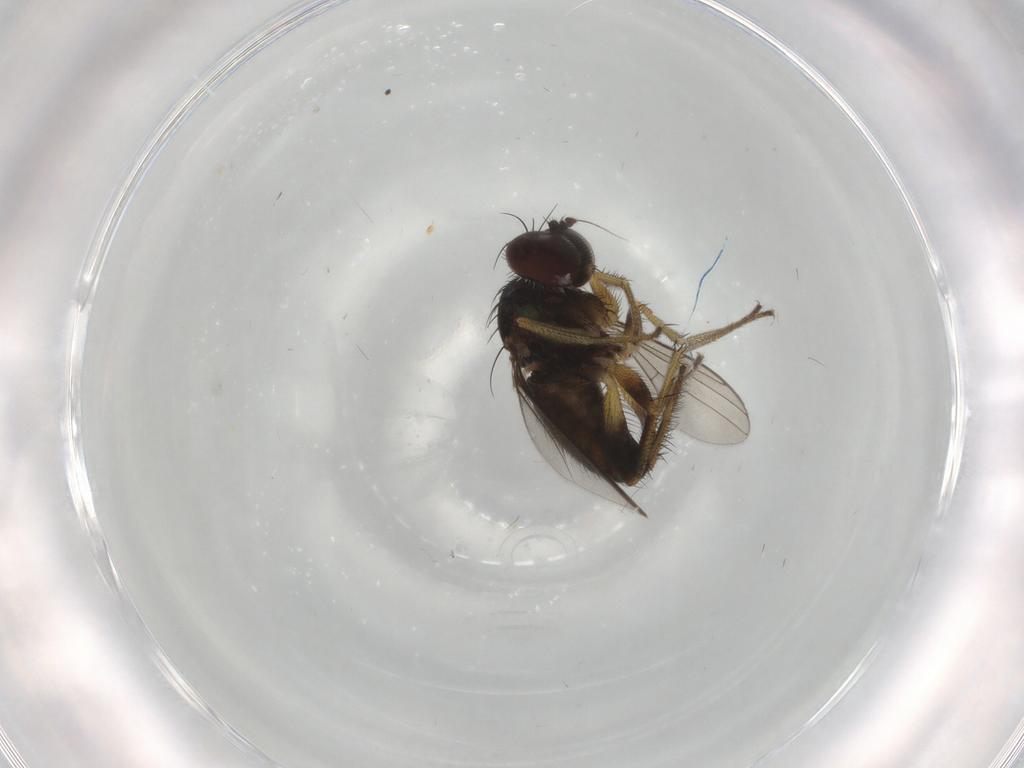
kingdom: Animalia
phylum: Arthropoda
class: Insecta
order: Diptera
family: Dolichopodidae
